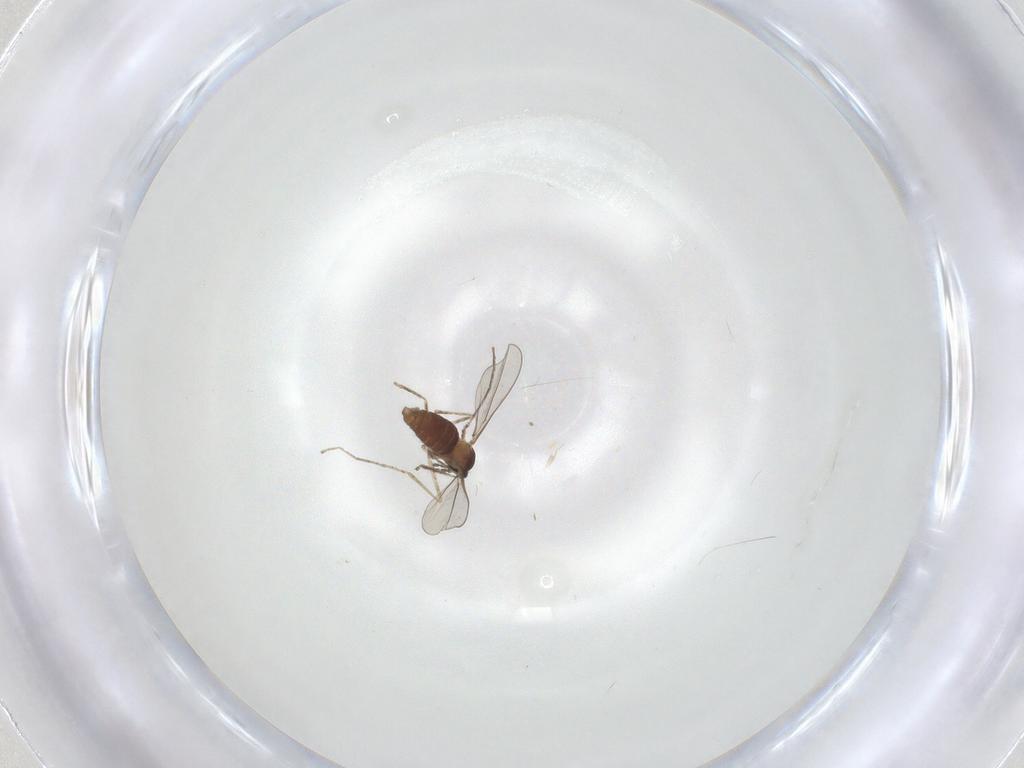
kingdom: Animalia
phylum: Arthropoda
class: Insecta
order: Diptera
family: Cecidomyiidae
